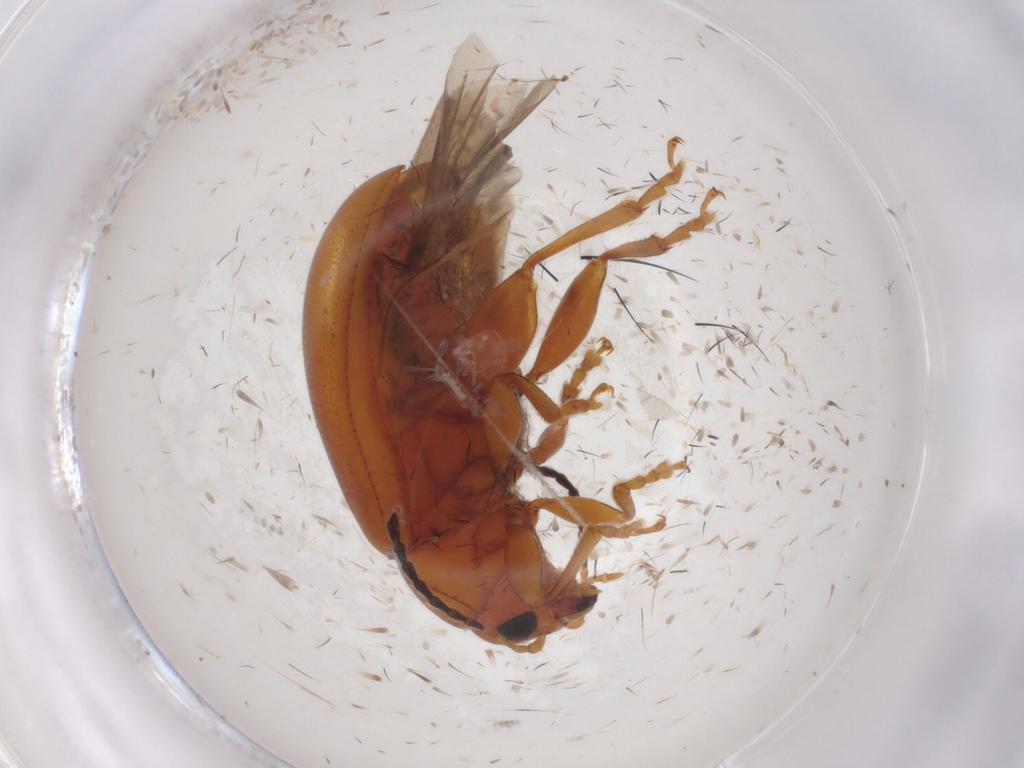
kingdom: Animalia
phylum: Arthropoda
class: Insecta
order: Coleoptera
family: Chrysomelidae
